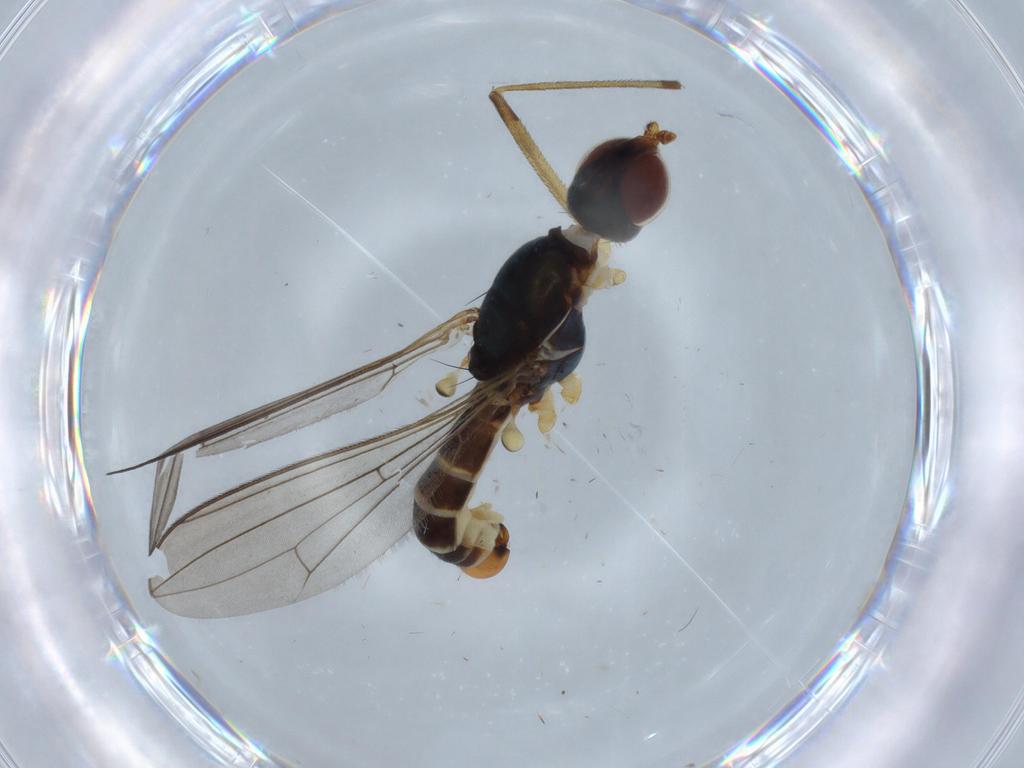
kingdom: Animalia
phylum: Arthropoda
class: Insecta
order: Diptera
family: Micropezidae
